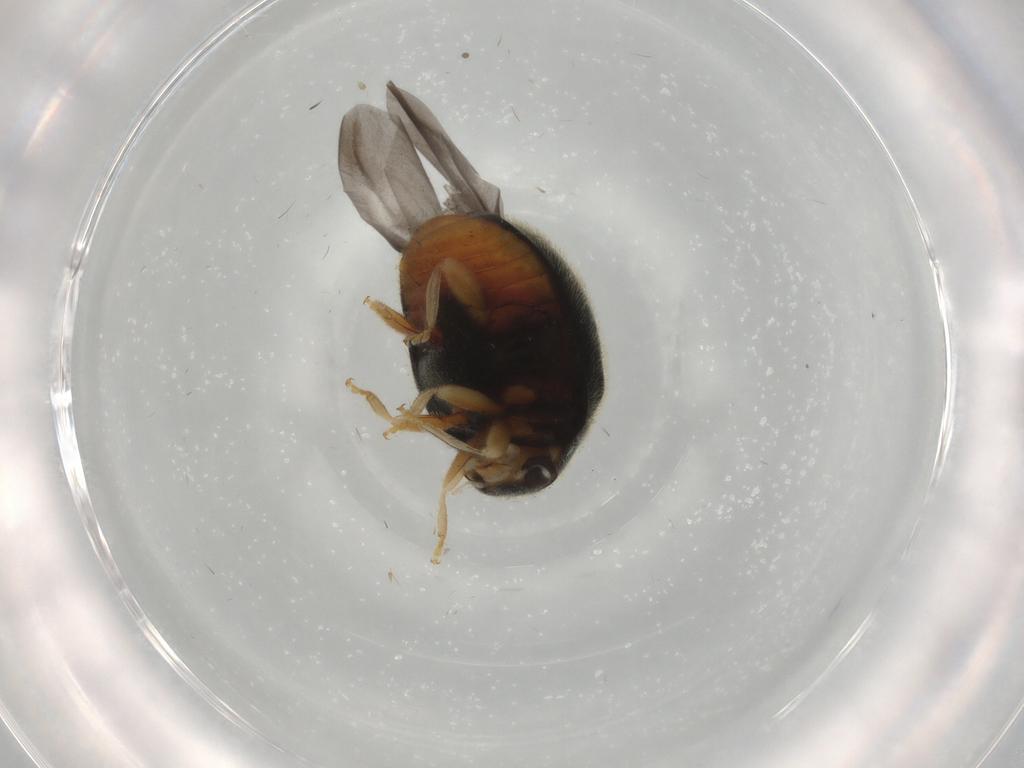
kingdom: Animalia
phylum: Arthropoda
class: Insecta
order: Coleoptera
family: Coccinellidae
